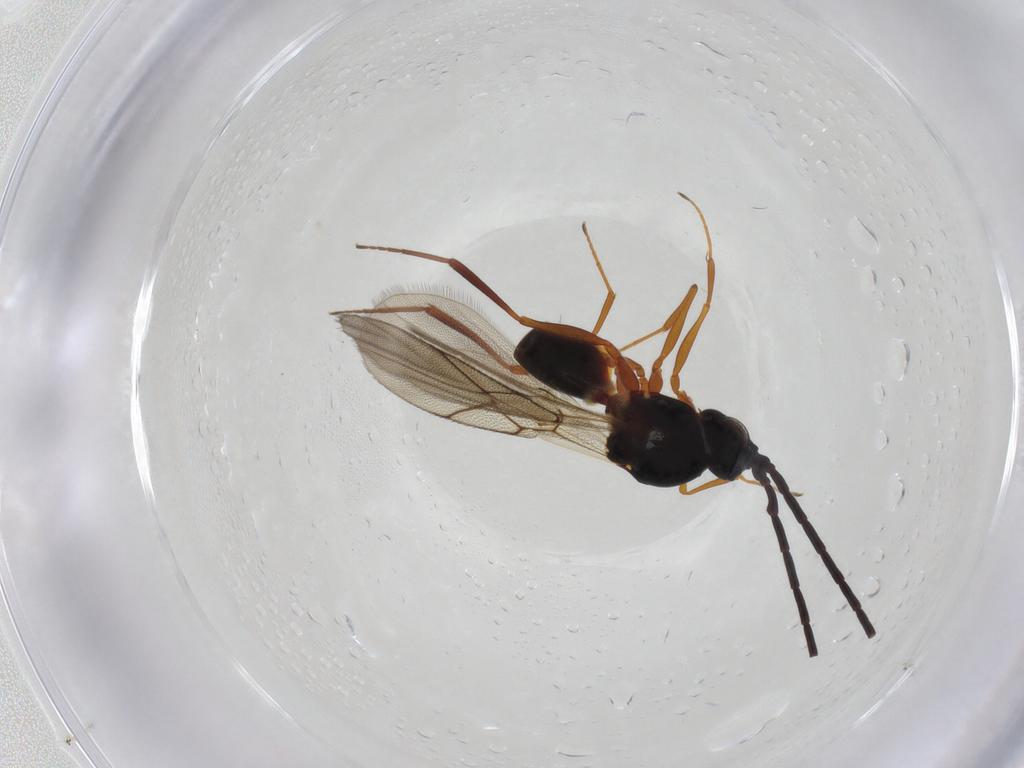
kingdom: Animalia
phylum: Arthropoda
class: Insecta
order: Hymenoptera
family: Figitidae
